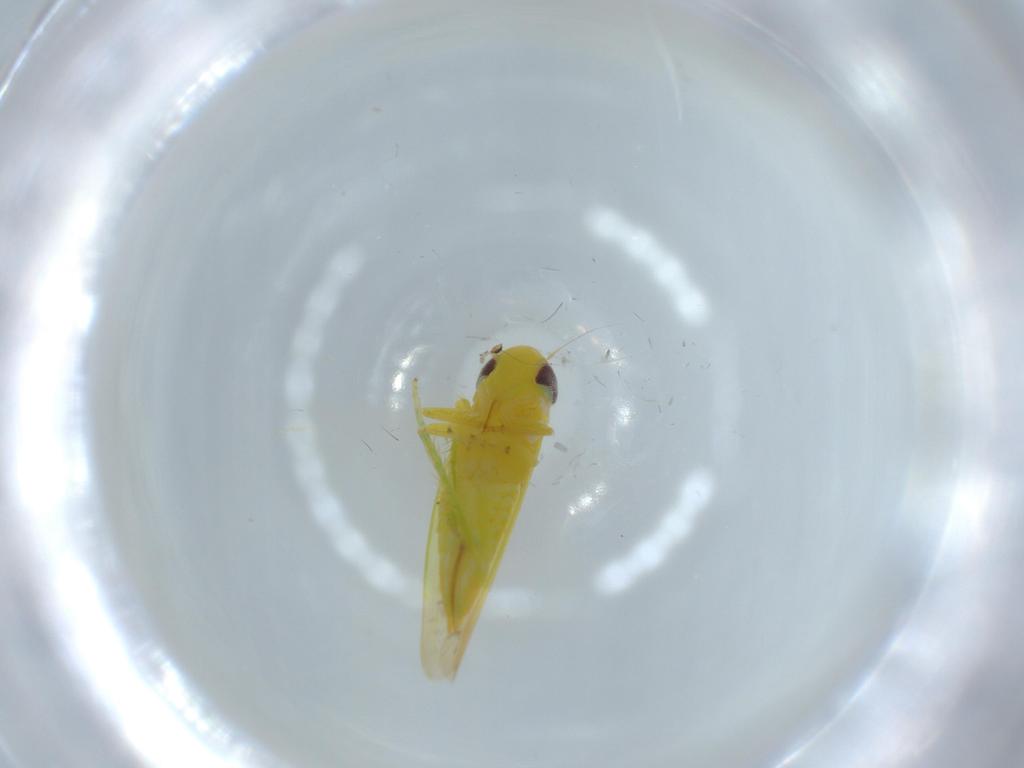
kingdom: Animalia
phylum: Arthropoda
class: Insecta
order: Hemiptera
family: Cicadellidae
